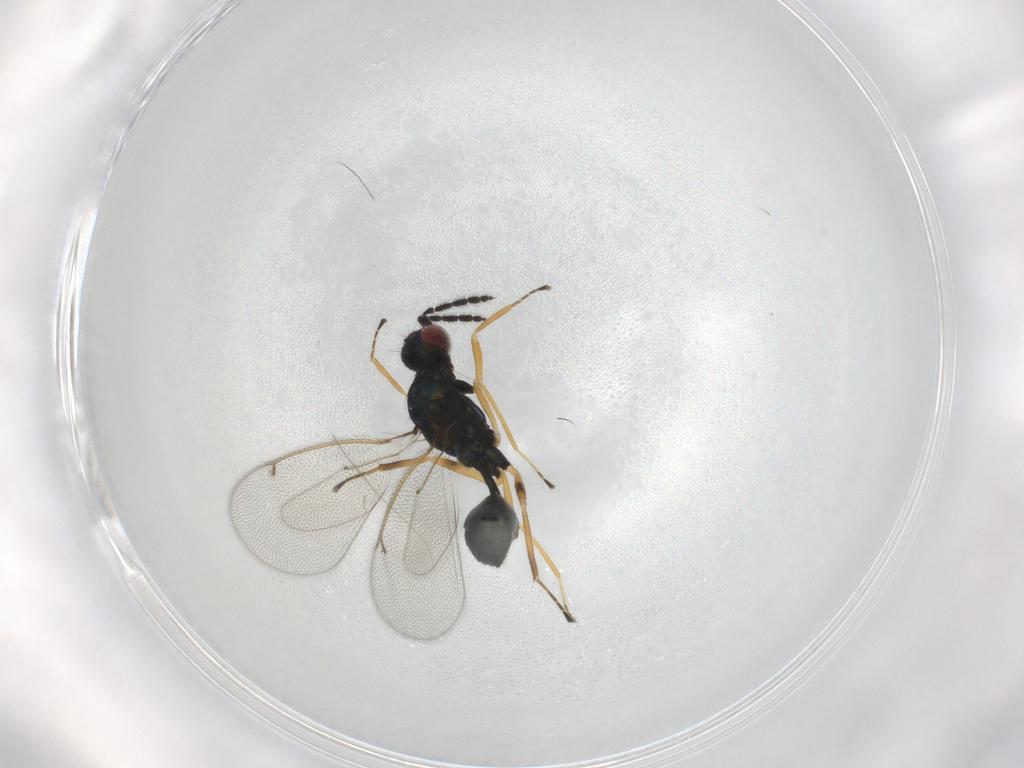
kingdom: Animalia
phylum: Arthropoda
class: Insecta
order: Hymenoptera
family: Eulophidae
